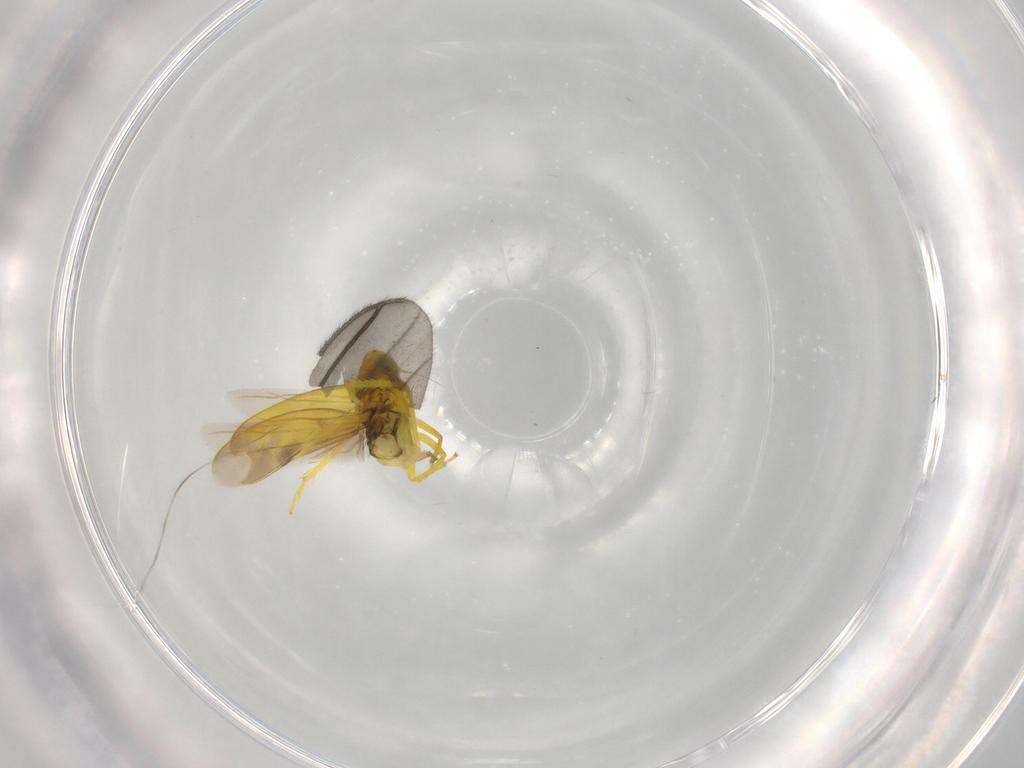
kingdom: Animalia
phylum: Arthropoda
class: Insecta
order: Hemiptera
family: Cicadellidae
